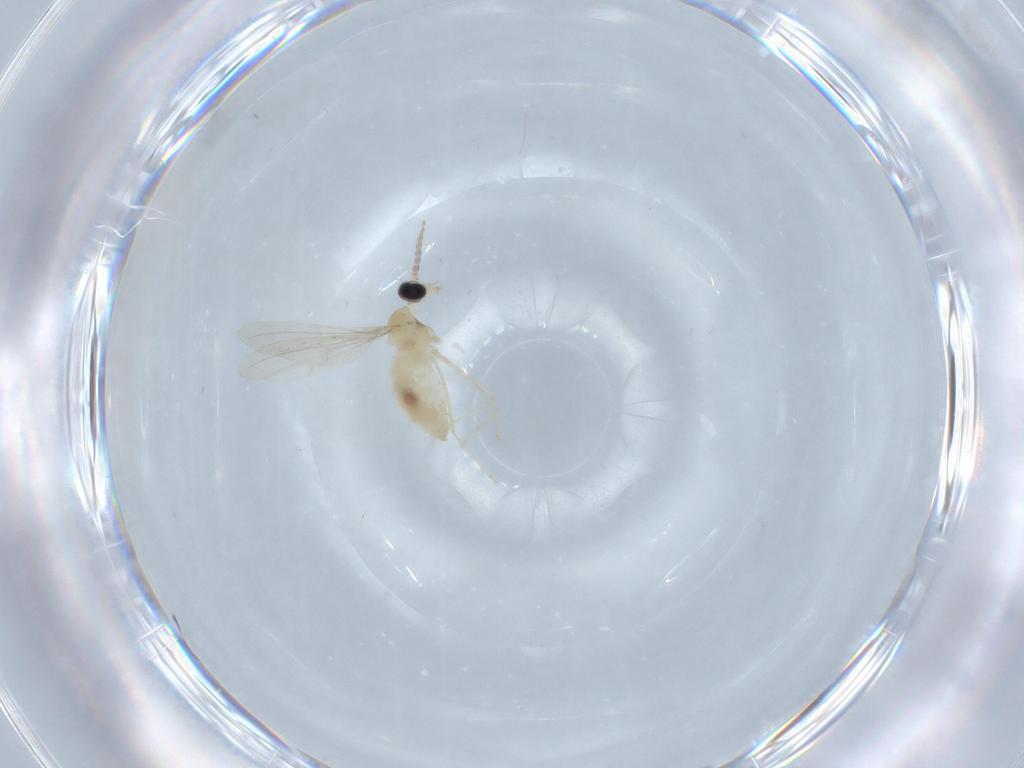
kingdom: Animalia
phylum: Arthropoda
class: Insecta
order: Diptera
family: Cecidomyiidae
